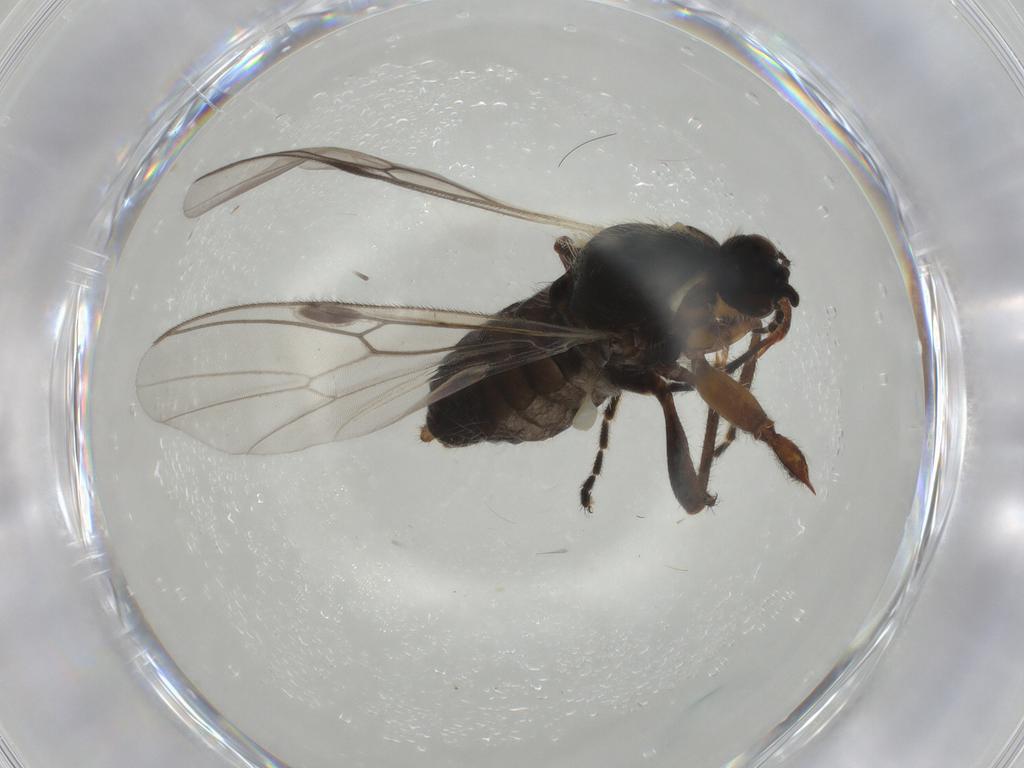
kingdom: Animalia
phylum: Arthropoda
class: Insecta
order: Diptera
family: Bibionidae
